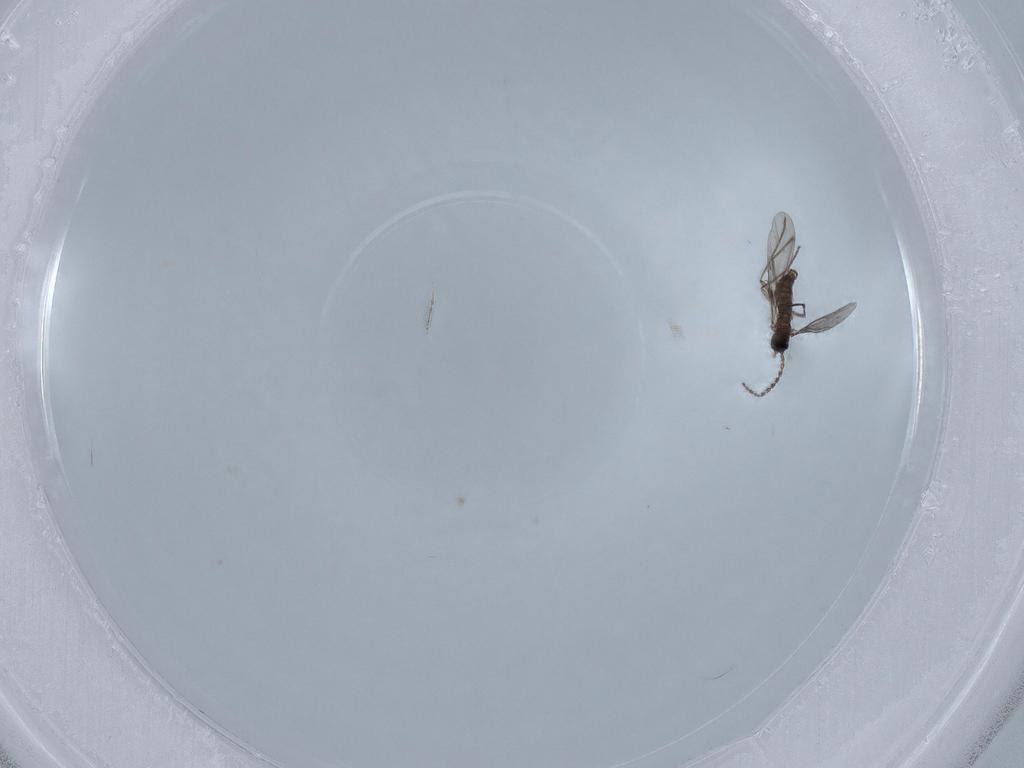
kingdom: Animalia
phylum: Arthropoda
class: Insecta
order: Diptera
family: Cecidomyiidae
